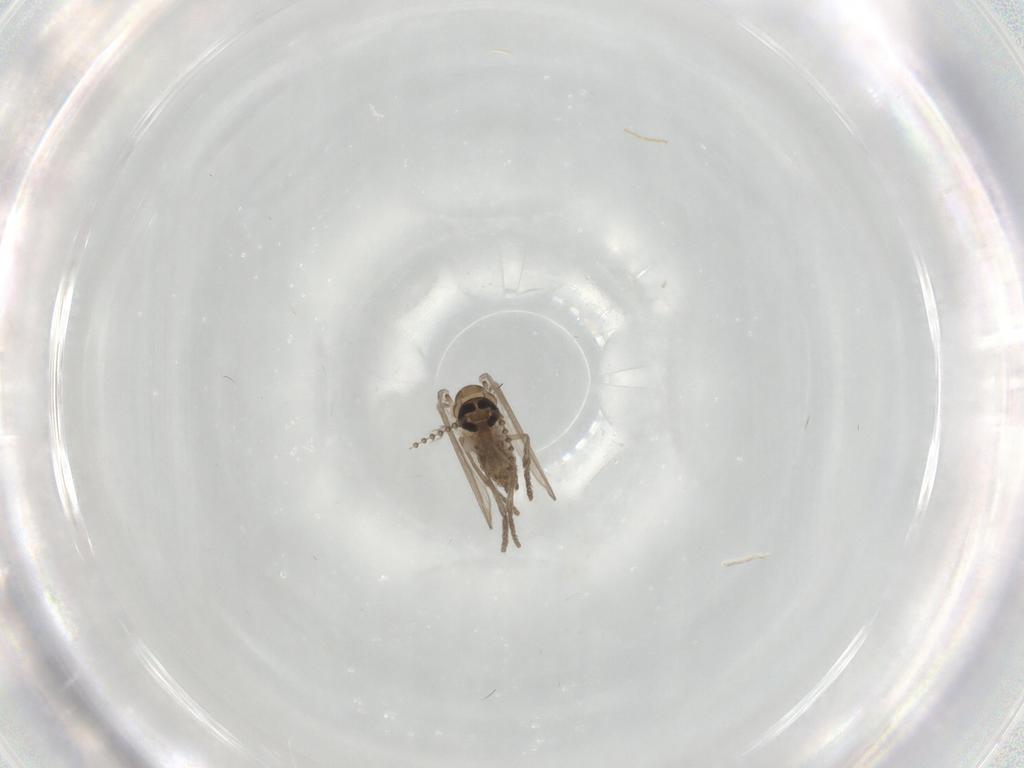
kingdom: Animalia
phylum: Arthropoda
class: Insecta
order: Diptera
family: Psychodidae
